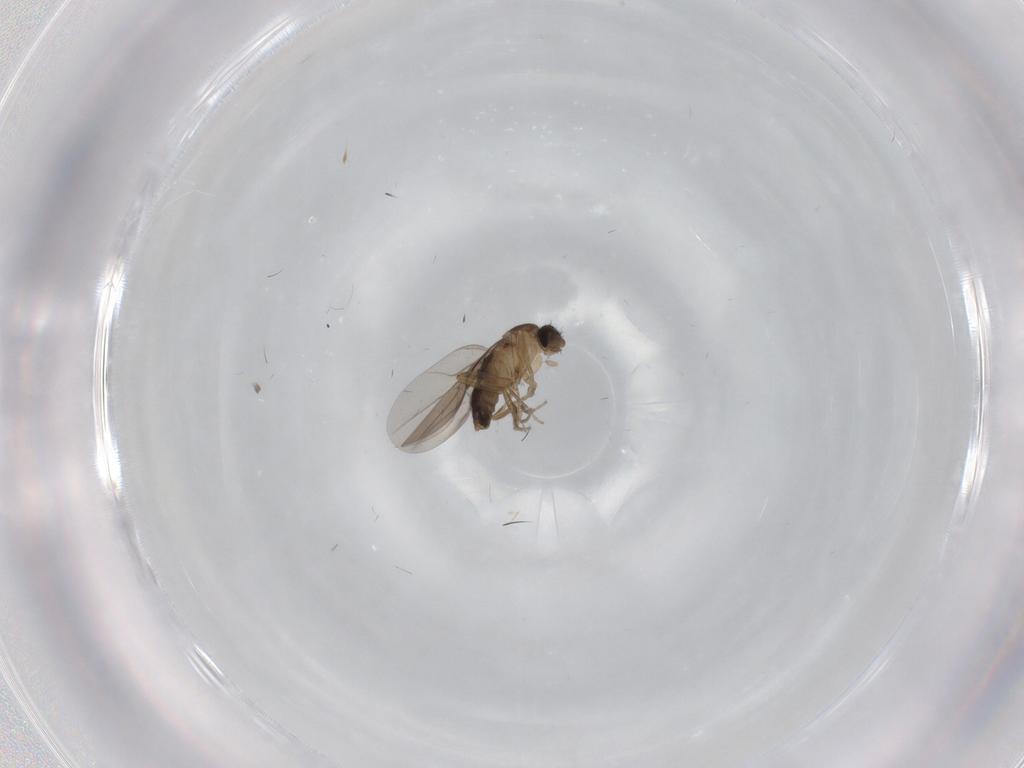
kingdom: Animalia
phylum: Arthropoda
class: Insecta
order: Diptera
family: Phoridae
